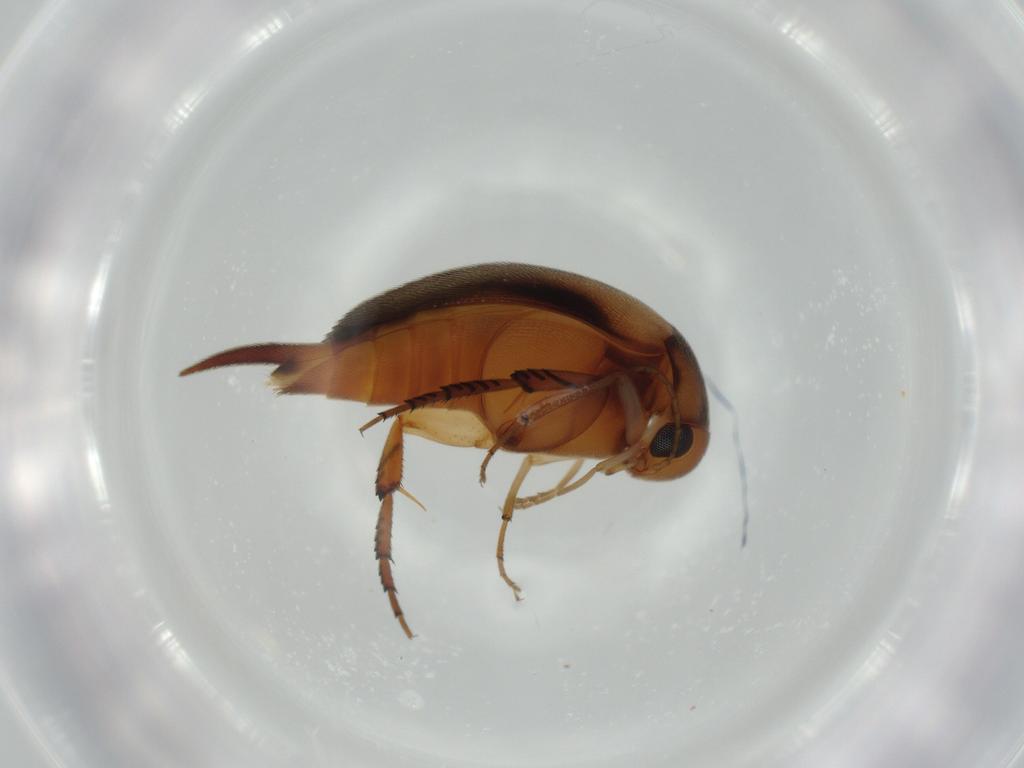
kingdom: Animalia
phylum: Arthropoda
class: Insecta
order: Coleoptera
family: Mordellidae
